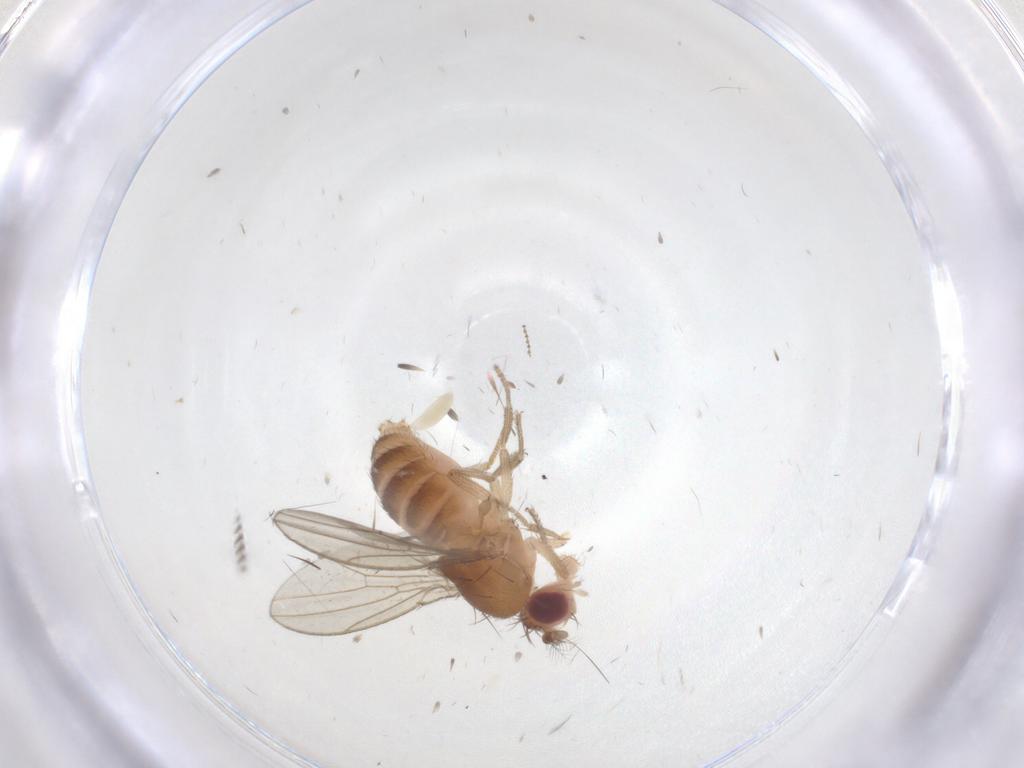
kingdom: Animalia
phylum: Arthropoda
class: Insecta
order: Diptera
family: Drosophilidae
